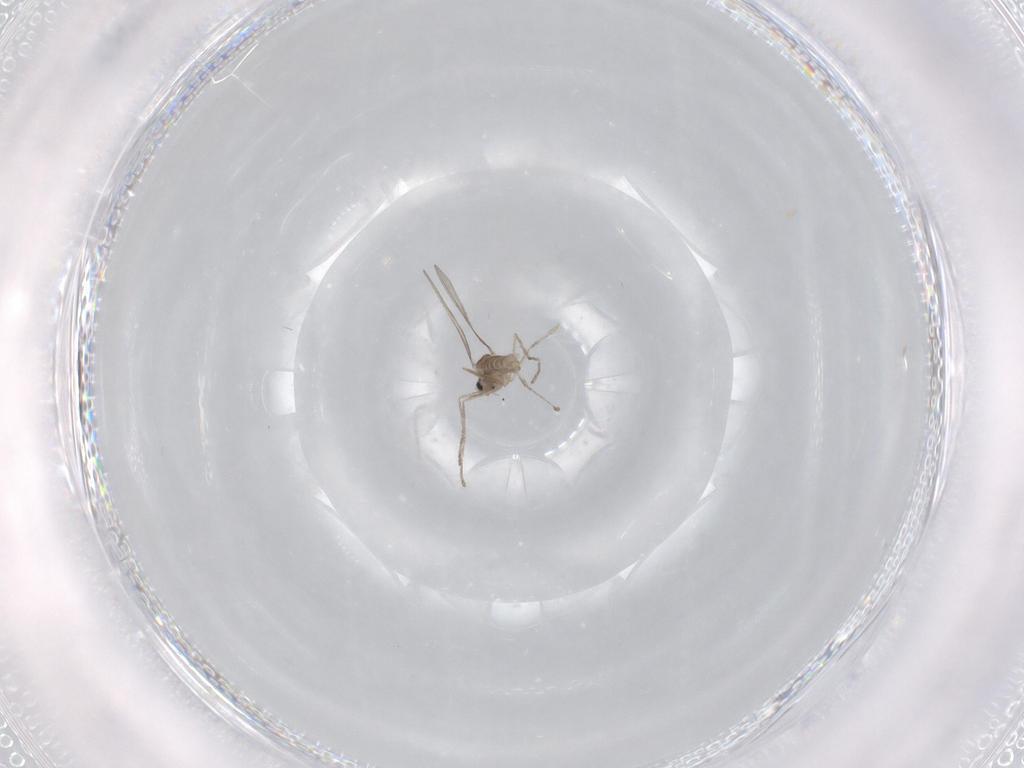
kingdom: Animalia
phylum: Arthropoda
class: Insecta
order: Diptera
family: Chironomidae
